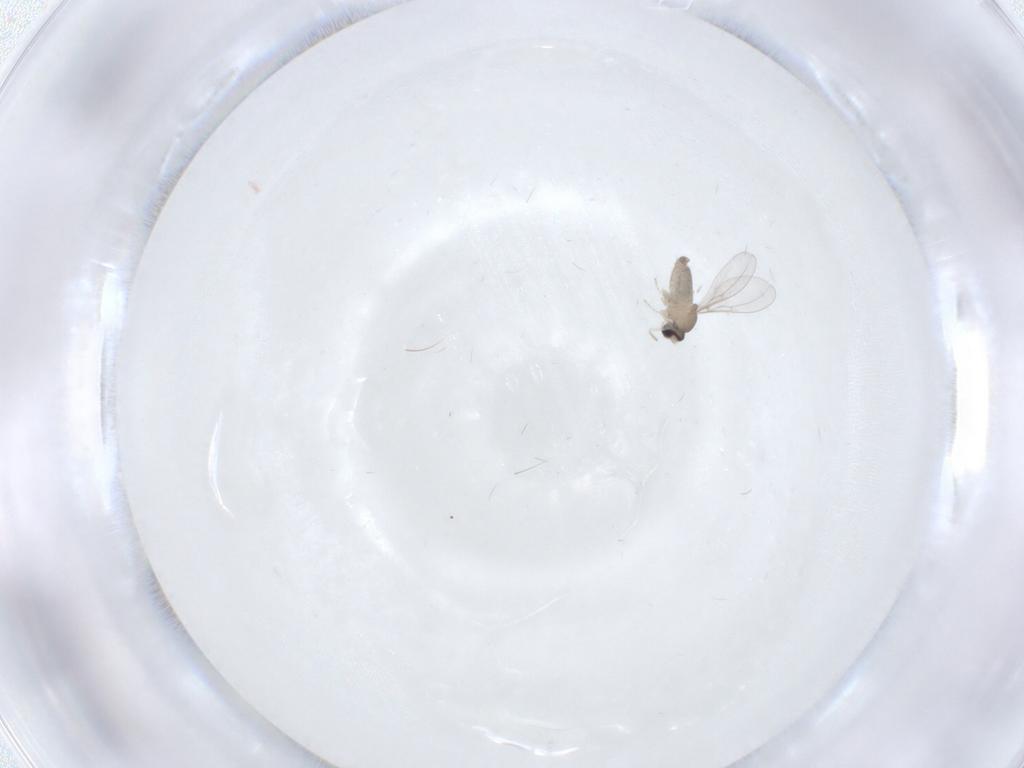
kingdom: Animalia
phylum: Arthropoda
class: Insecta
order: Diptera
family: Cecidomyiidae
